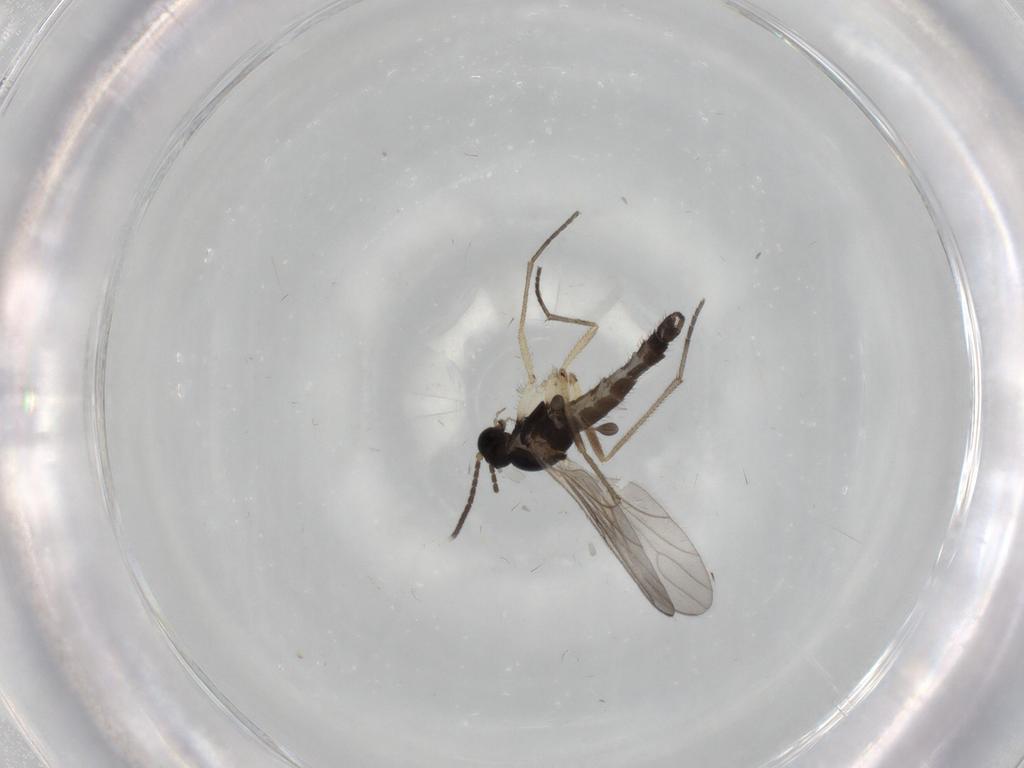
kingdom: Animalia
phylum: Arthropoda
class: Insecta
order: Diptera
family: Sciaridae
